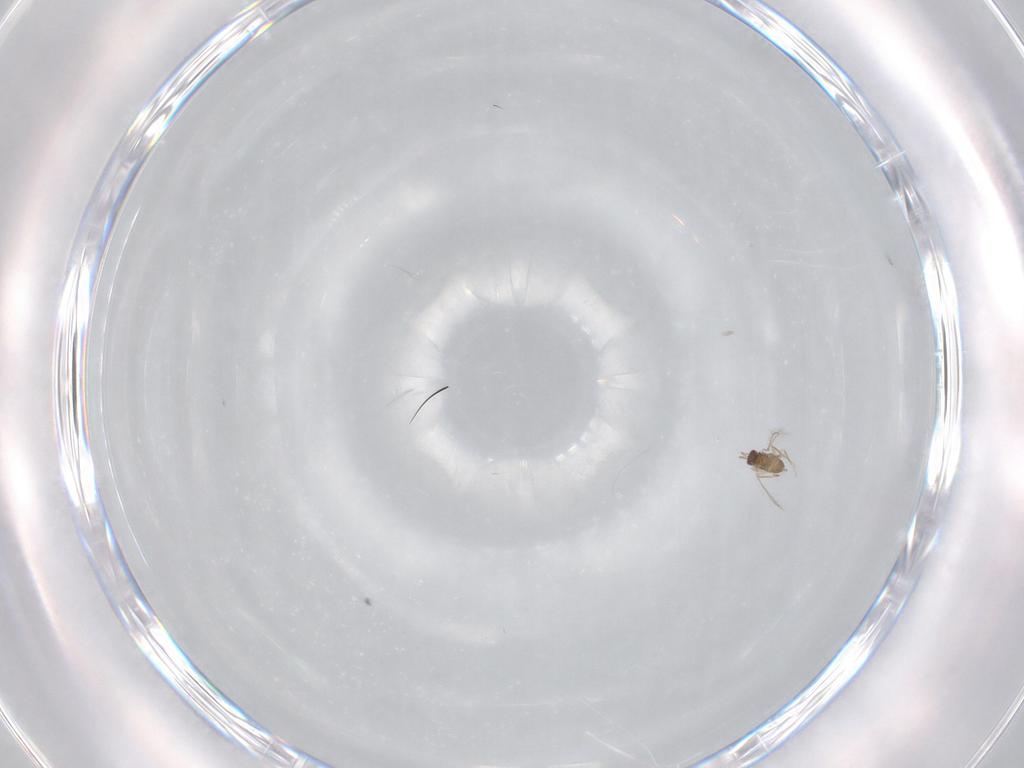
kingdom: Animalia
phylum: Arthropoda
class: Insecta
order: Hymenoptera
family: Mymaridae
